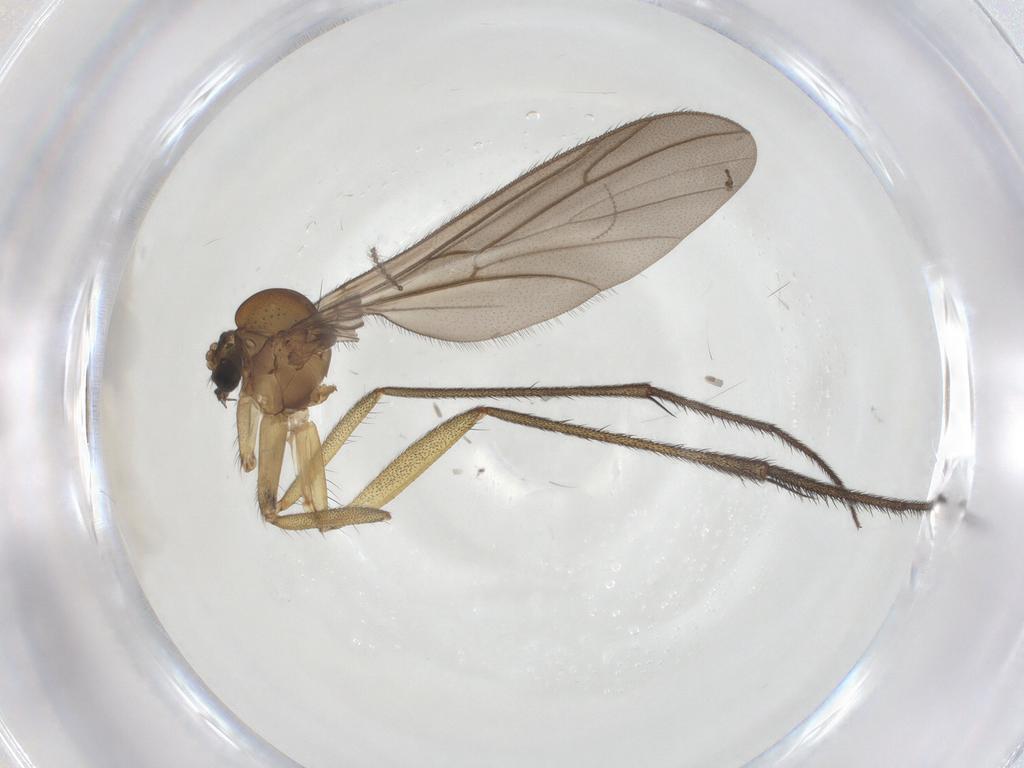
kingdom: Animalia
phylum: Arthropoda
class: Insecta
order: Diptera
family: Ditomyiidae
